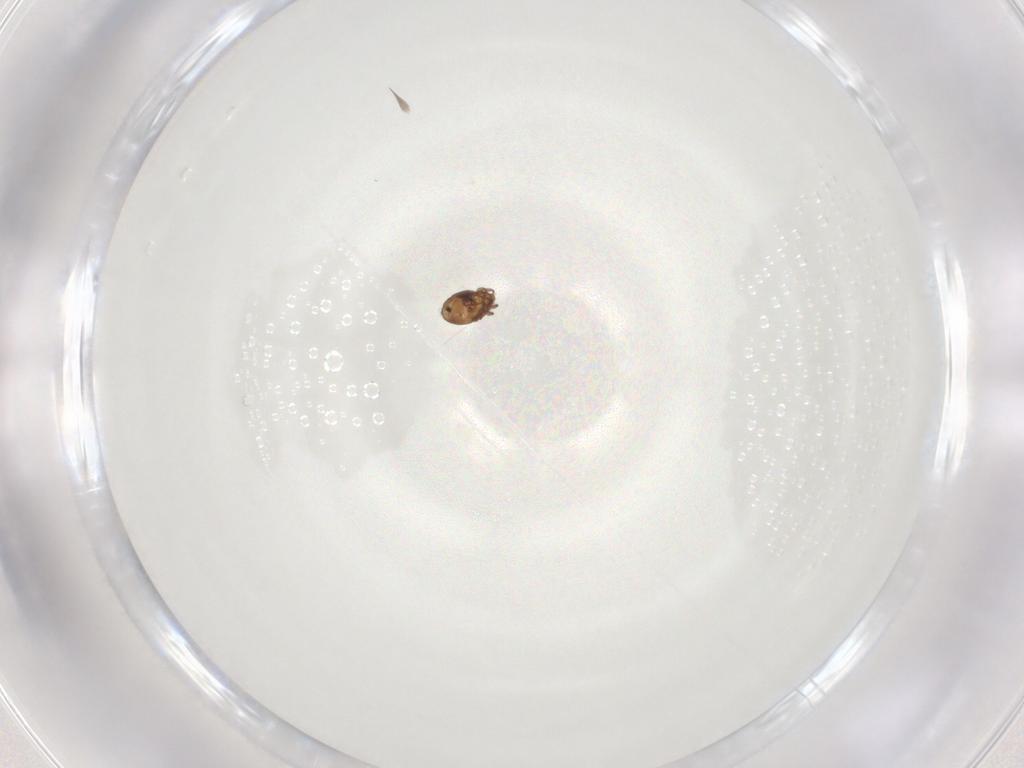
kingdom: Animalia
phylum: Arthropoda
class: Arachnida
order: Sarcoptiformes
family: Scheloribatidae
